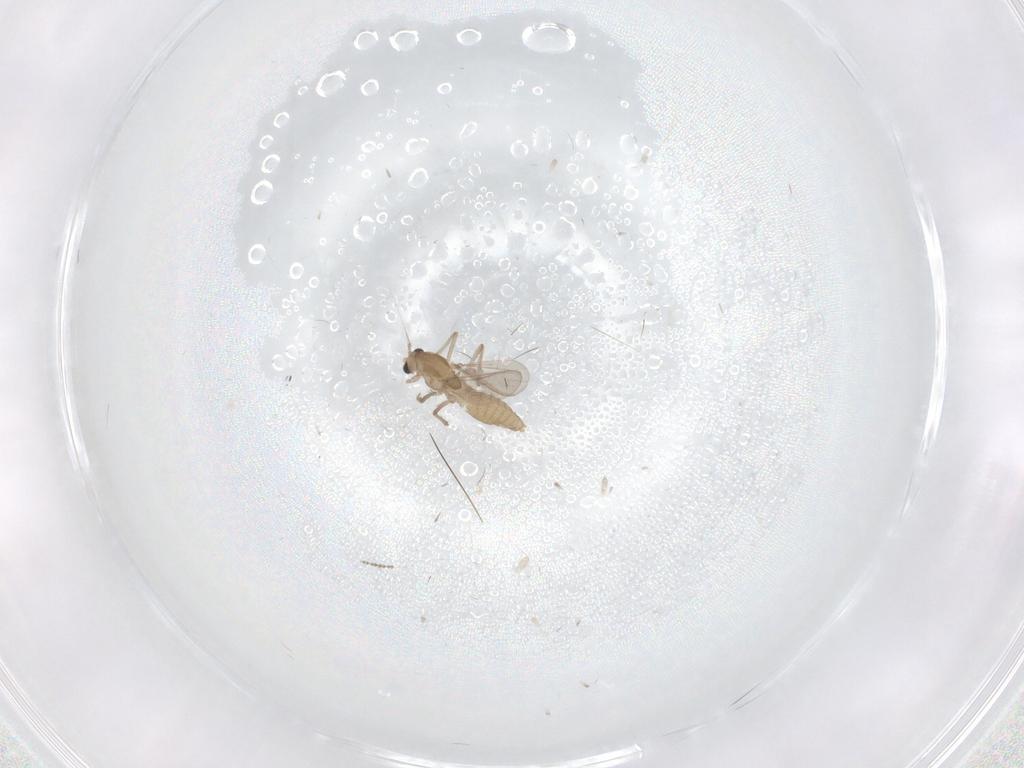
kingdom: Animalia
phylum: Arthropoda
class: Insecta
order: Diptera
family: Chironomidae
